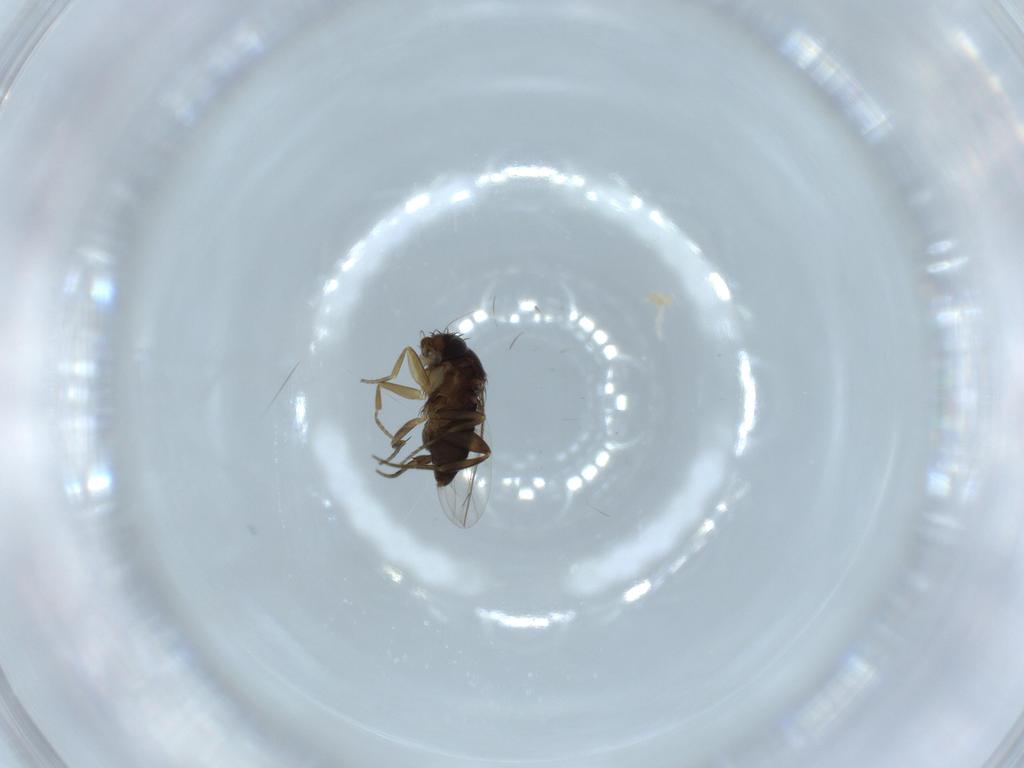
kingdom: Animalia
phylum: Arthropoda
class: Insecta
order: Diptera
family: Phoridae
